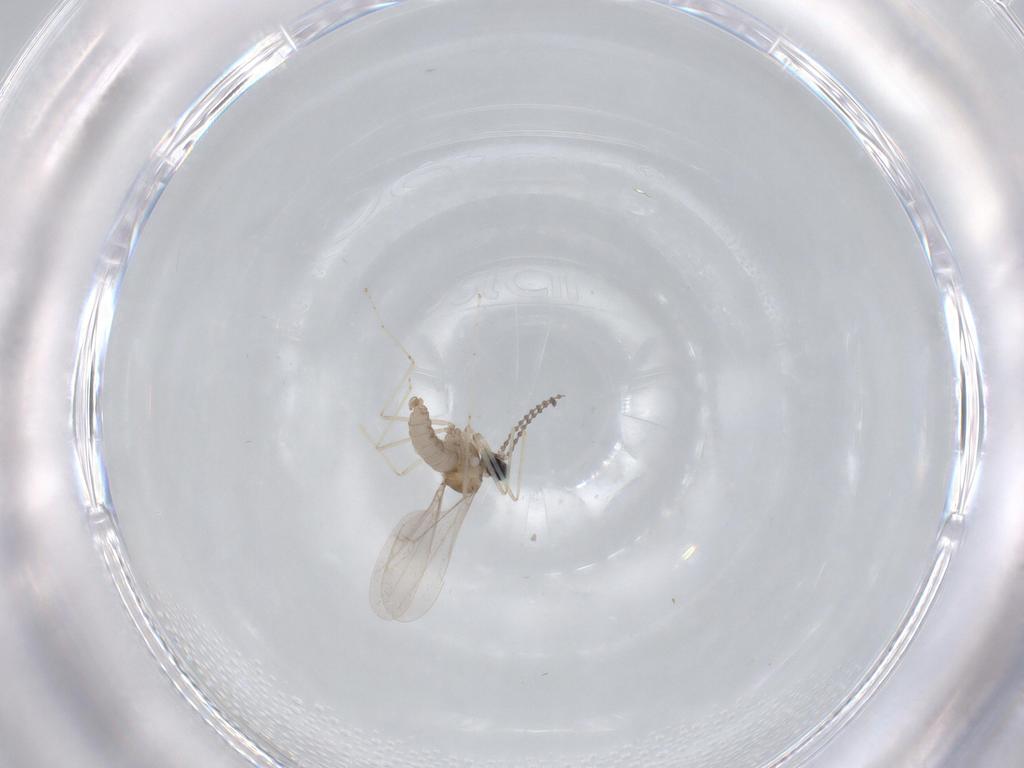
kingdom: Animalia
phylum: Arthropoda
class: Insecta
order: Diptera
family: Cecidomyiidae
